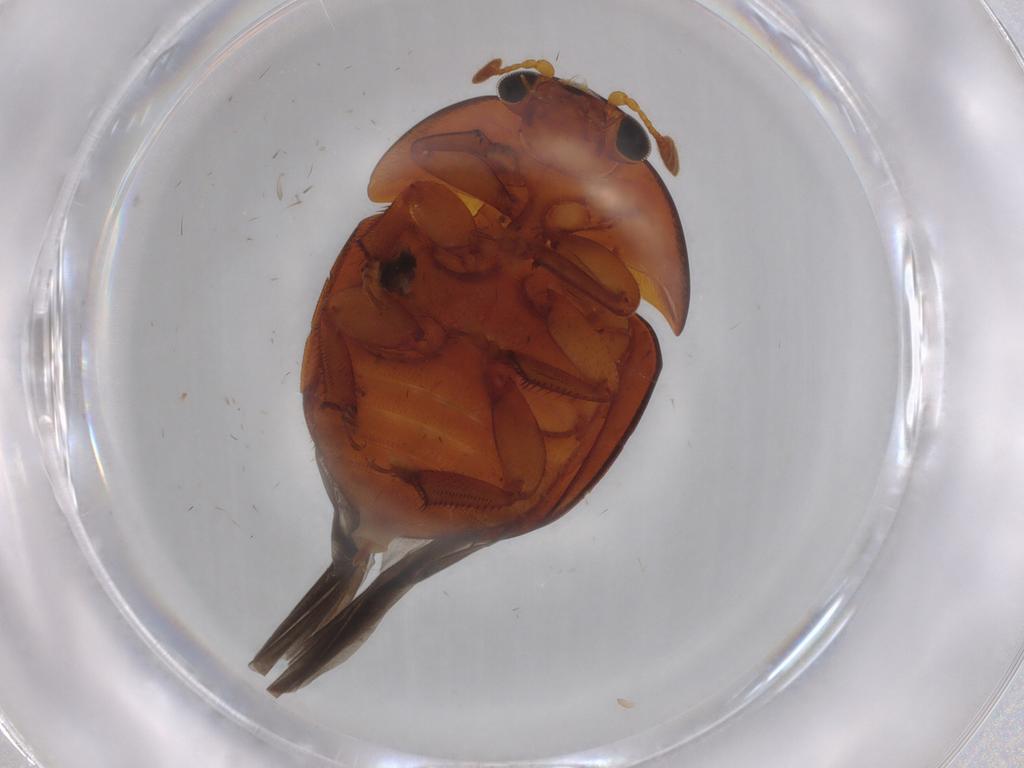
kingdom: Animalia
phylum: Arthropoda
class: Insecta
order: Coleoptera
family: Nitidulidae
